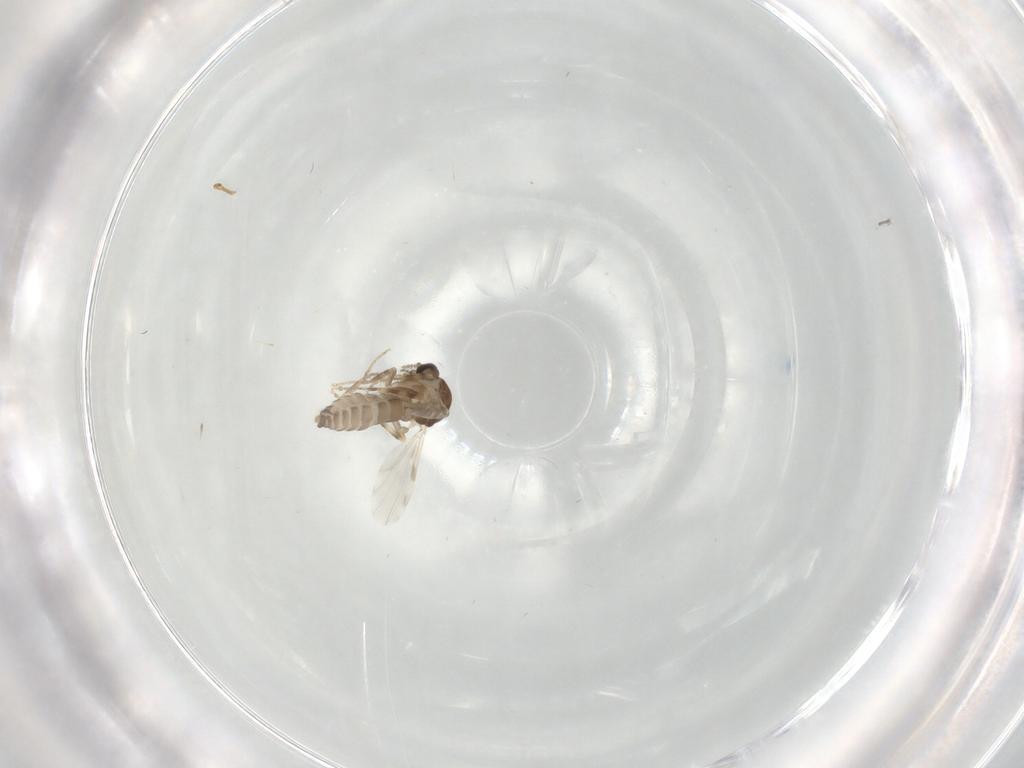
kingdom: Animalia
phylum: Arthropoda
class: Insecta
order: Diptera
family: Ceratopogonidae
